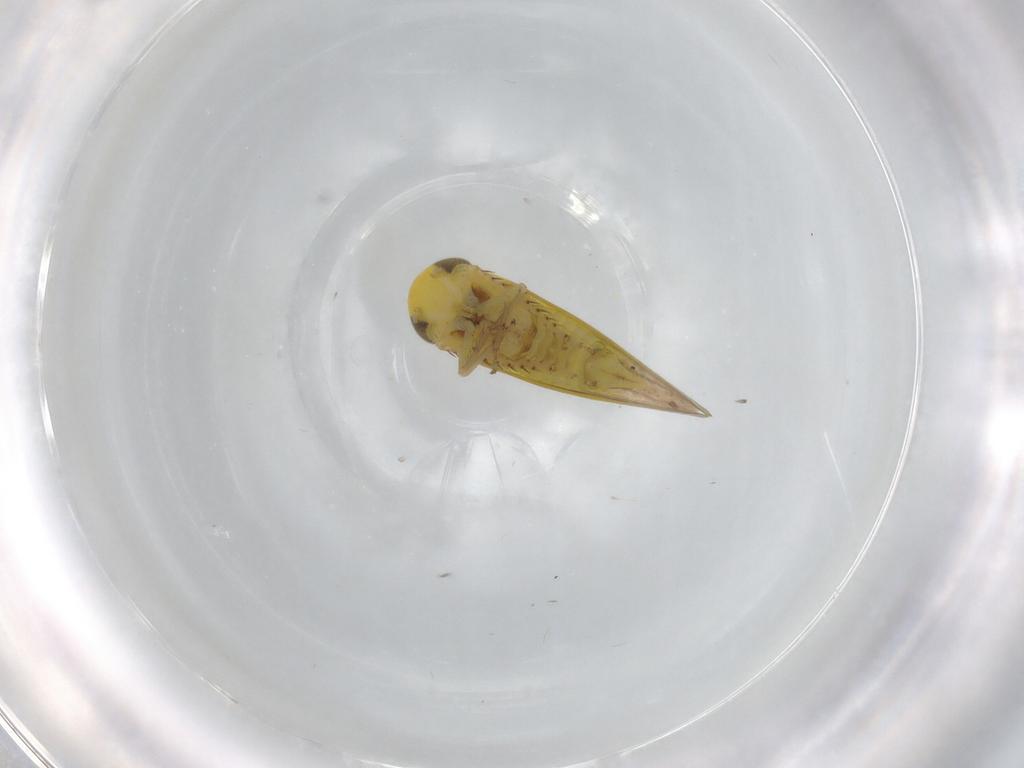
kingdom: Animalia
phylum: Arthropoda
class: Insecta
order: Hemiptera
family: Cicadellidae
